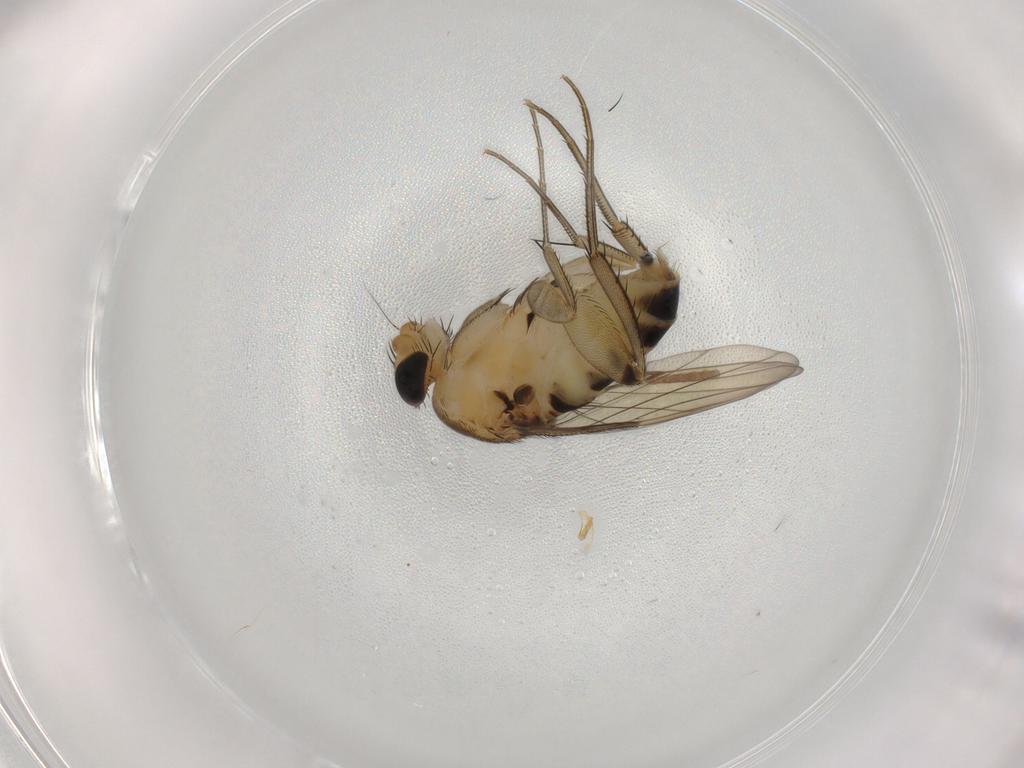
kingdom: Animalia
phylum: Arthropoda
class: Insecta
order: Diptera
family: Phoridae
